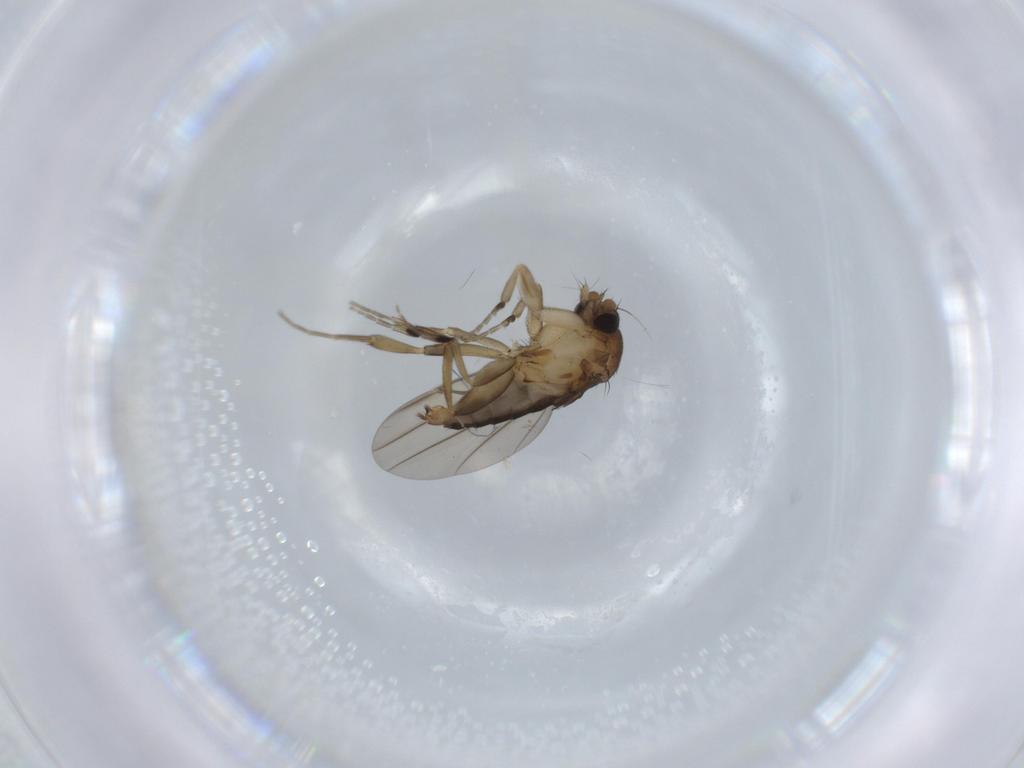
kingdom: Animalia
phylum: Arthropoda
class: Insecta
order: Diptera
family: Phoridae
